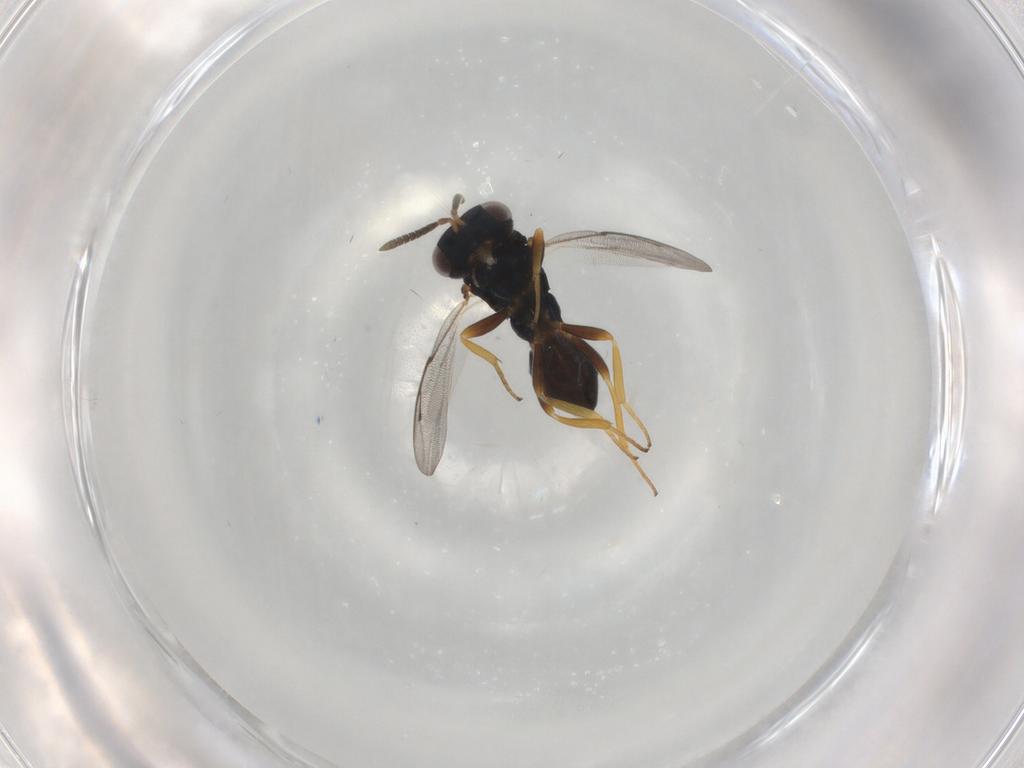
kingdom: Animalia
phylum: Arthropoda
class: Insecta
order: Hymenoptera
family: Pteromalidae
